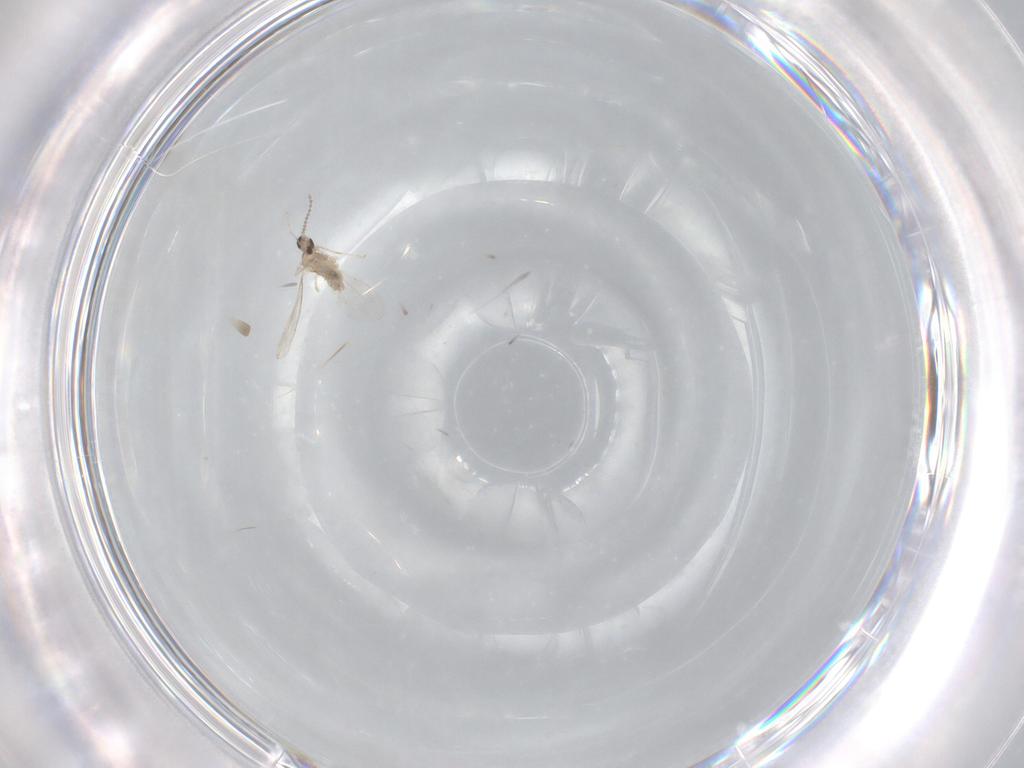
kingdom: Animalia
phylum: Arthropoda
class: Insecta
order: Diptera
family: Cecidomyiidae
